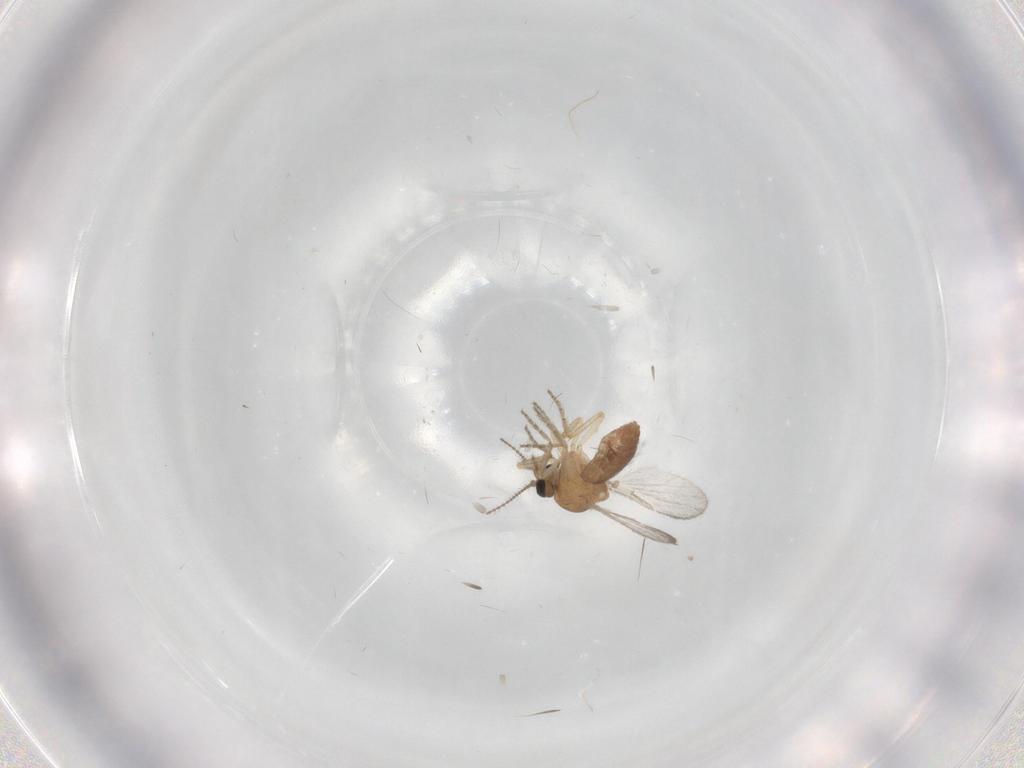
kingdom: Animalia
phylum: Arthropoda
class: Insecta
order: Diptera
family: Ceratopogonidae
